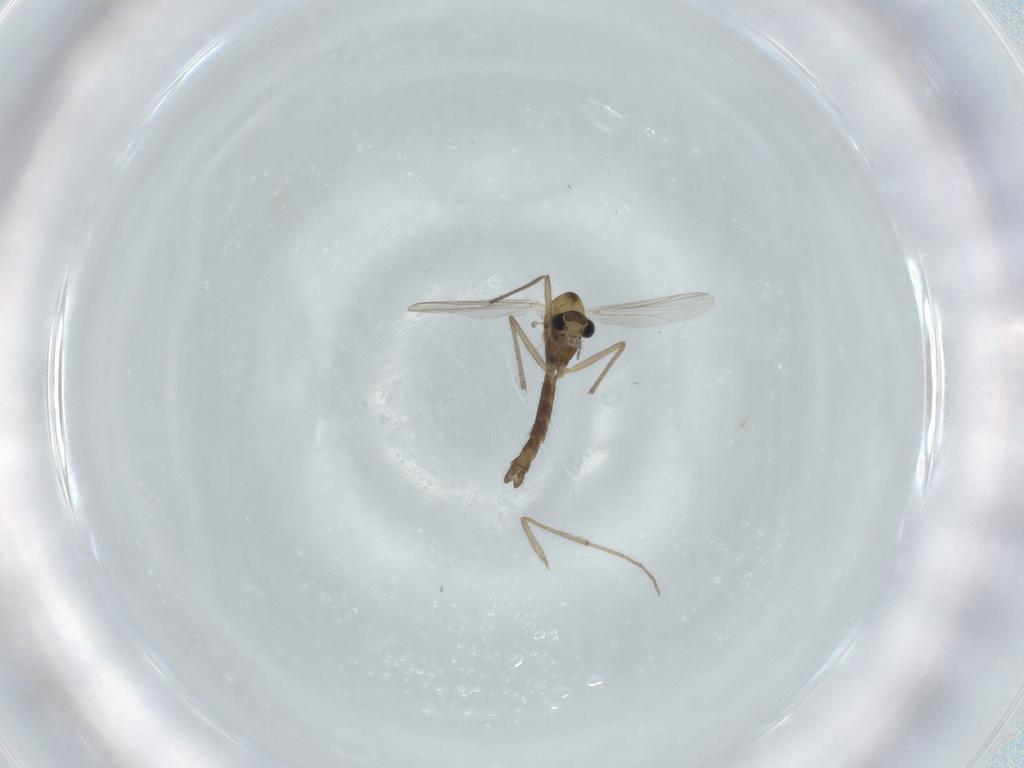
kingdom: Animalia
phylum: Arthropoda
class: Insecta
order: Diptera
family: Chironomidae
